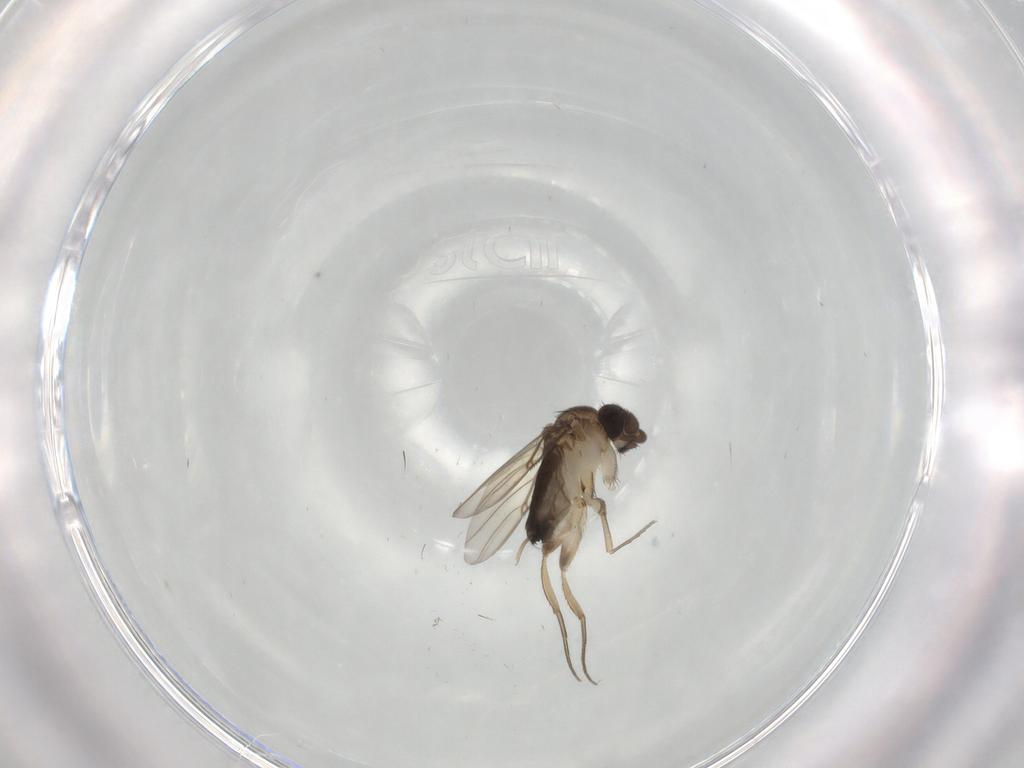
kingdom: Animalia
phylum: Arthropoda
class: Insecta
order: Diptera
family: Phoridae
